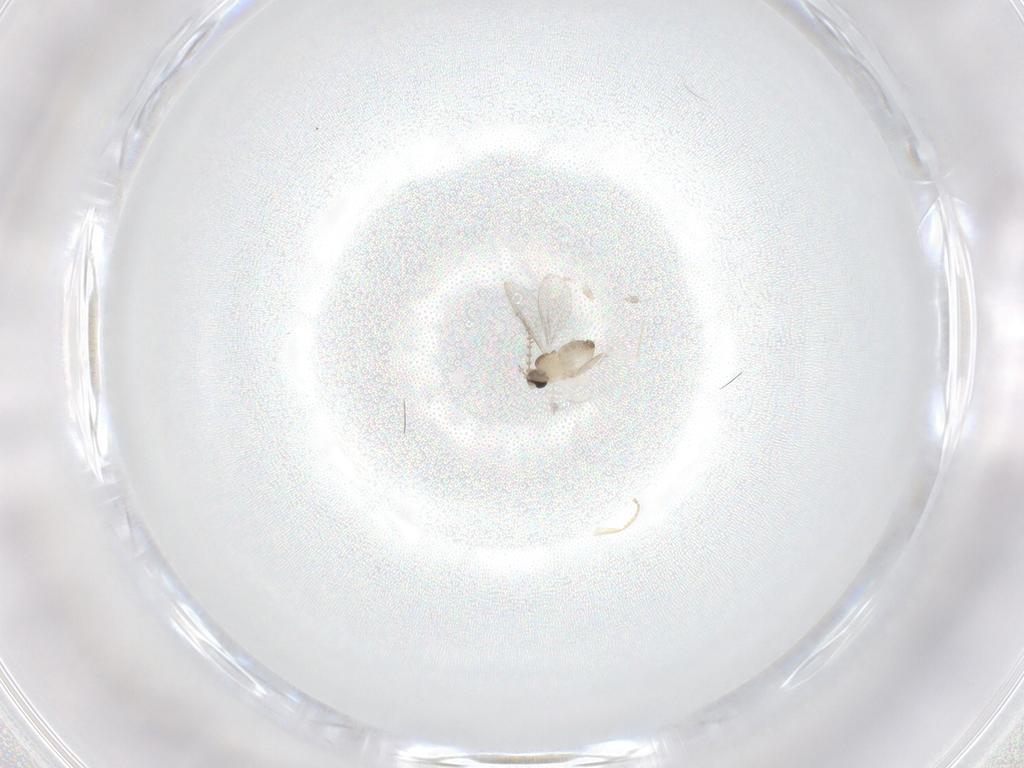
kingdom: Animalia
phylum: Arthropoda
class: Insecta
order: Diptera
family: Cecidomyiidae
